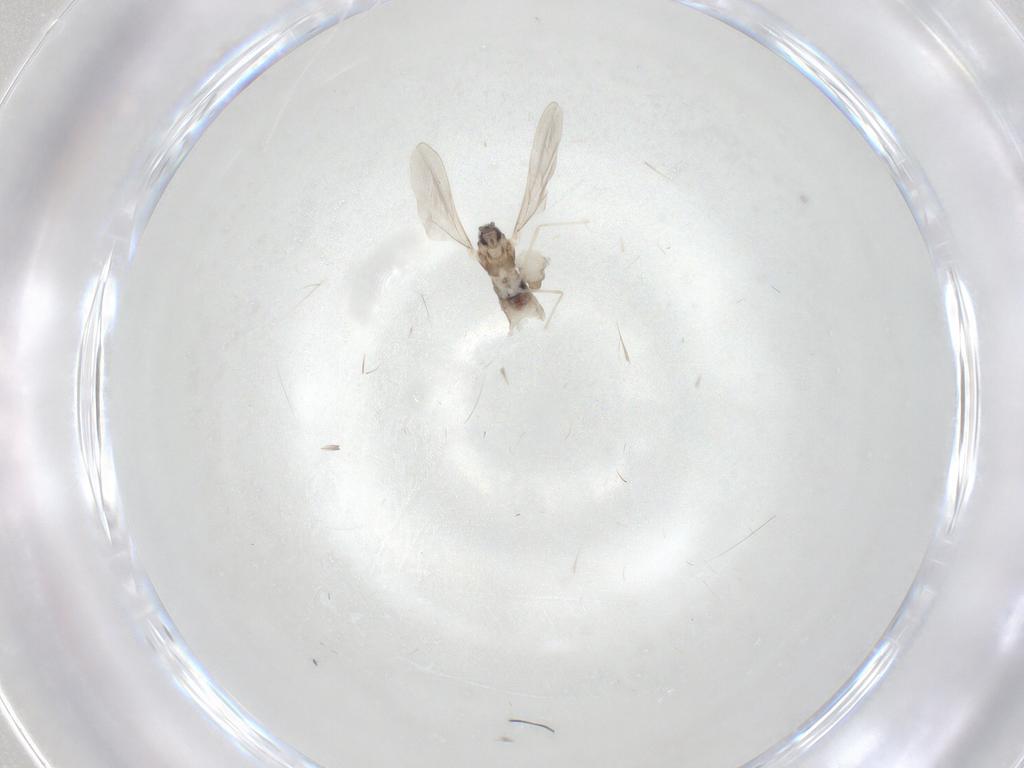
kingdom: Animalia
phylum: Arthropoda
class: Insecta
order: Diptera
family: Cecidomyiidae
